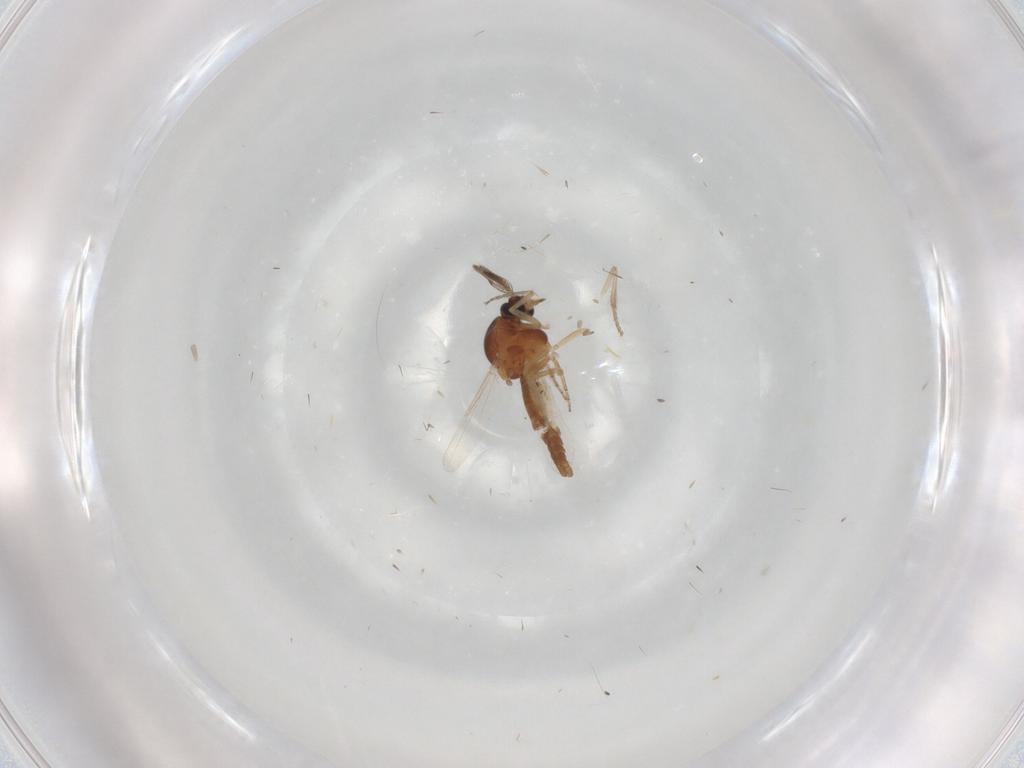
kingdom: Animalia
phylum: Arthropoda
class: Insecta
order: Diptera
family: Ceratopogonidae
